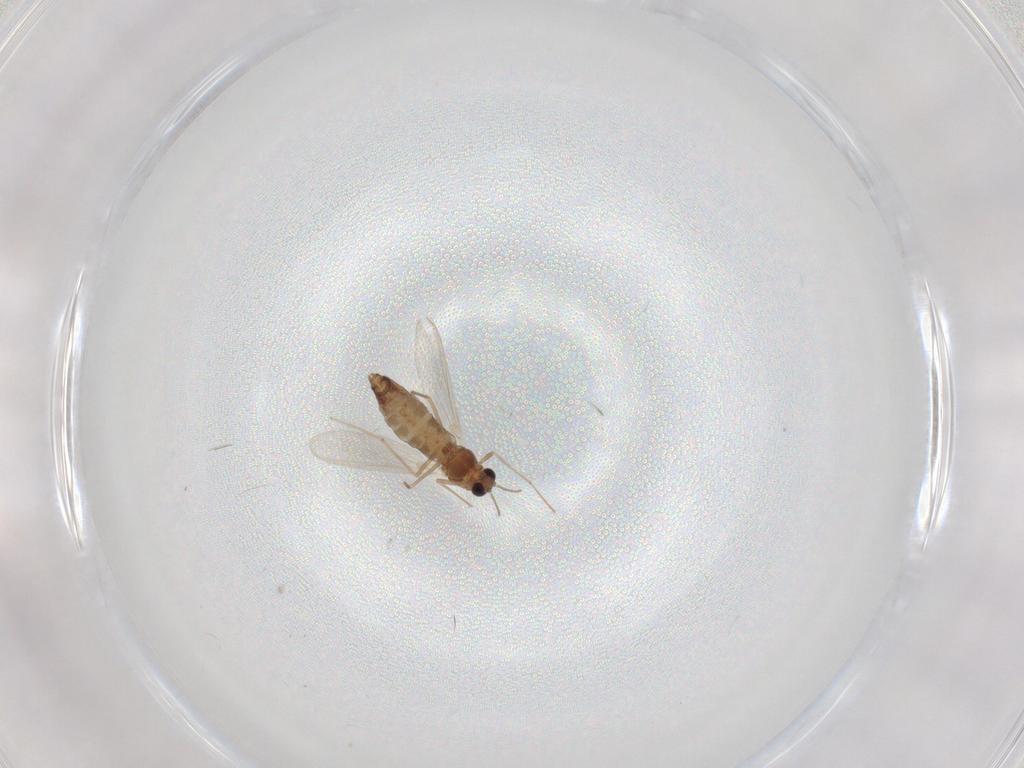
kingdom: Animalia
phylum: Arthropoda
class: Insecta
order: Diptera
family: Chironomidae
